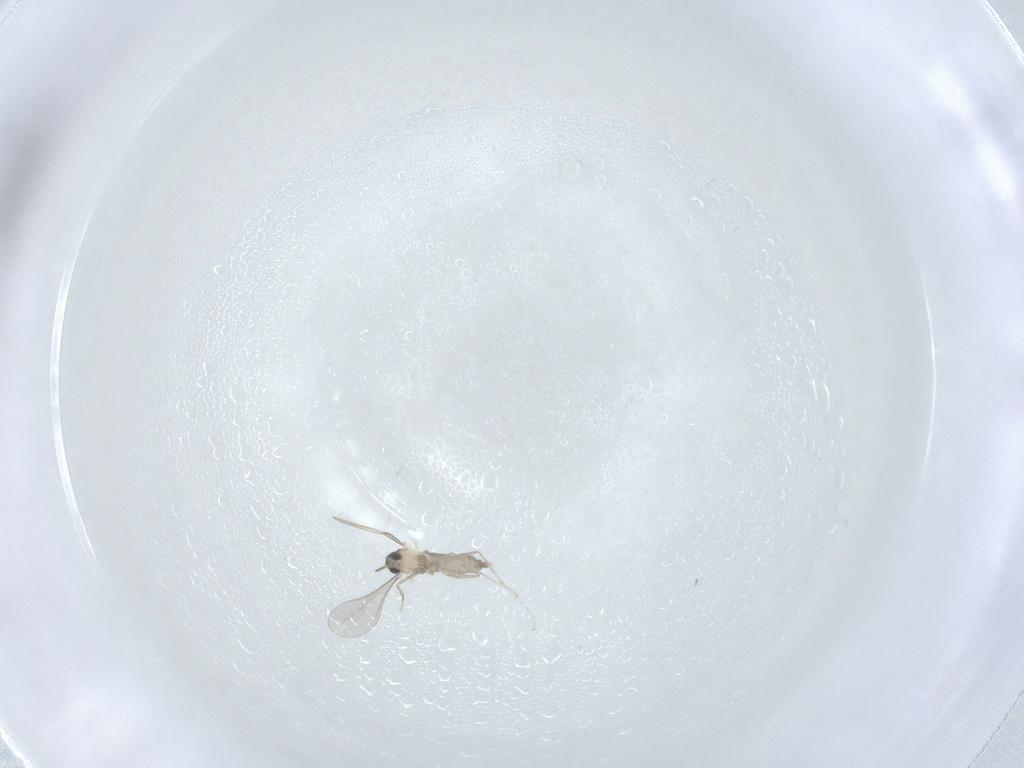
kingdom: Animalia
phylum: Arthropoda
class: Insecta
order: Diptera
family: Cecidomyiidae
